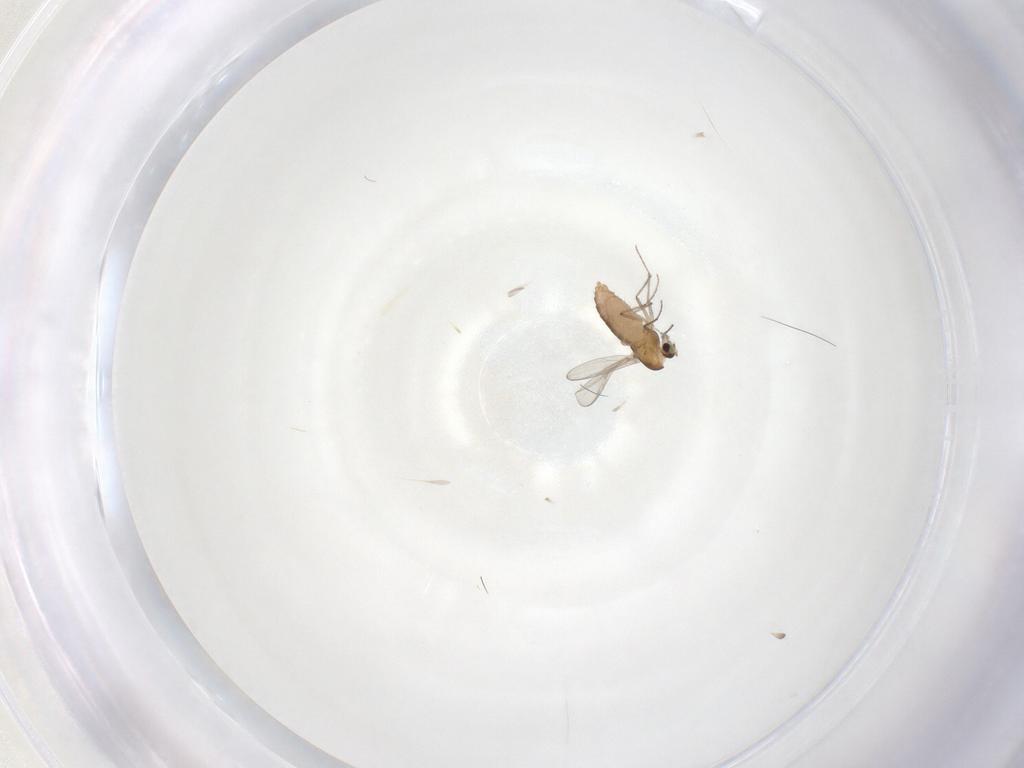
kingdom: Animalia
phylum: Arthropoda
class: Insecta
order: Diptera
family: Chironomidae
